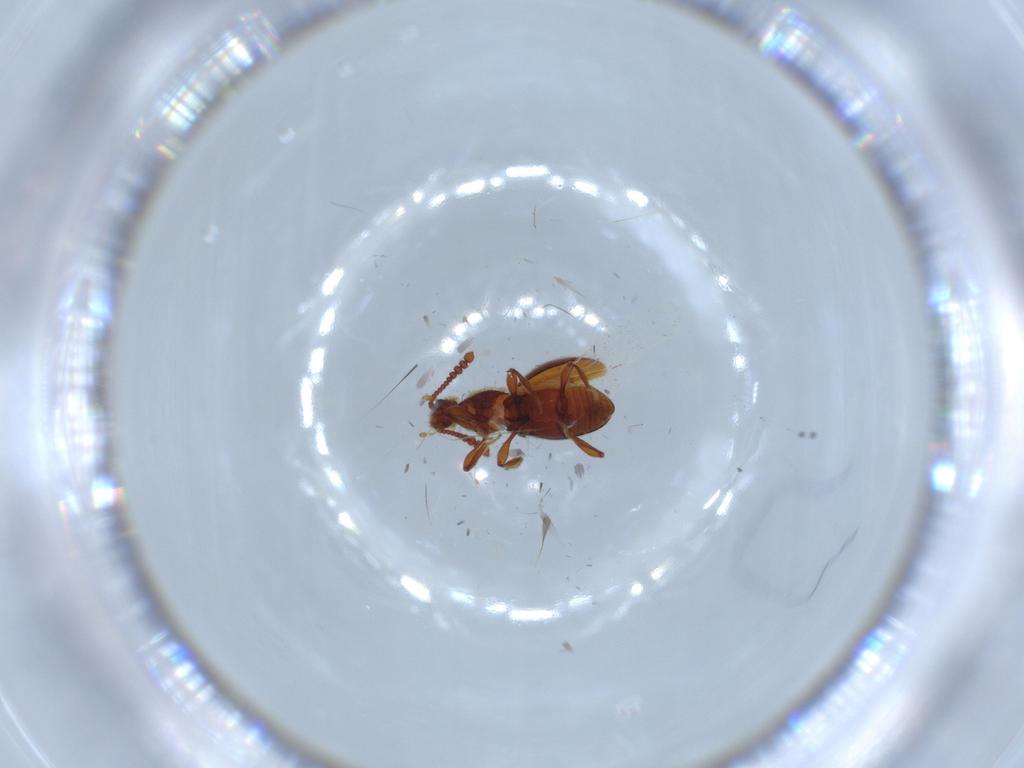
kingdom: Animalia
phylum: Arthropoda
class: Insecta
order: Coleoptera
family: Staphylinidae
